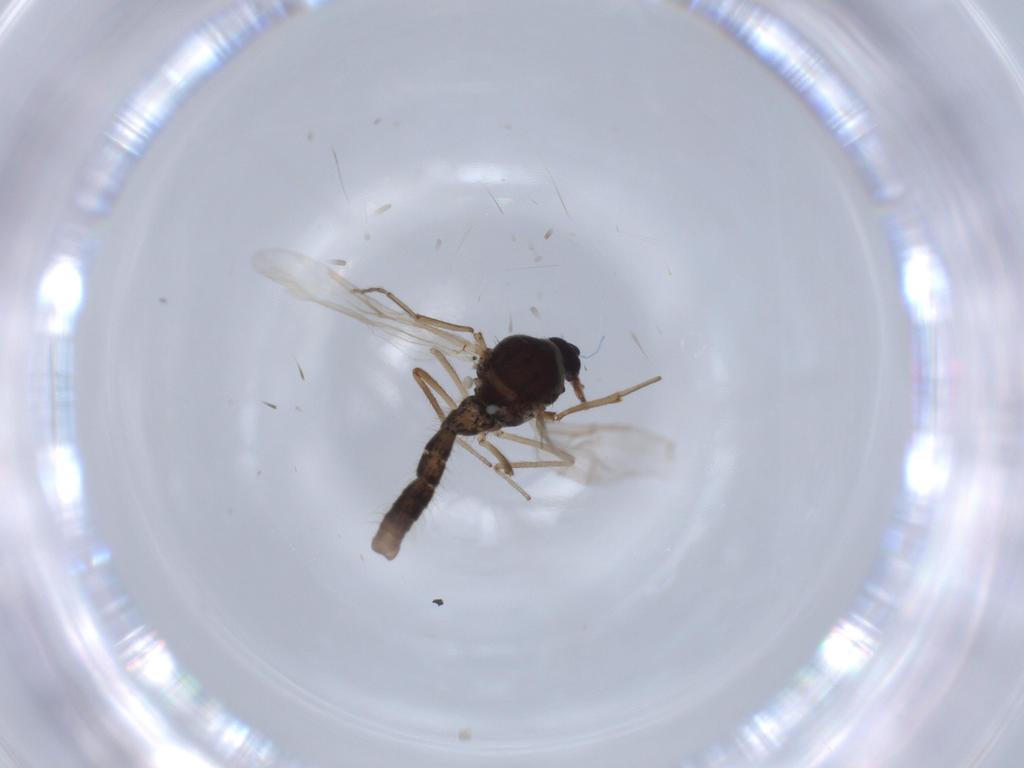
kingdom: Animalia
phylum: Arthropoda
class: Insecta
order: Diptera
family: Ceratopogonidae
